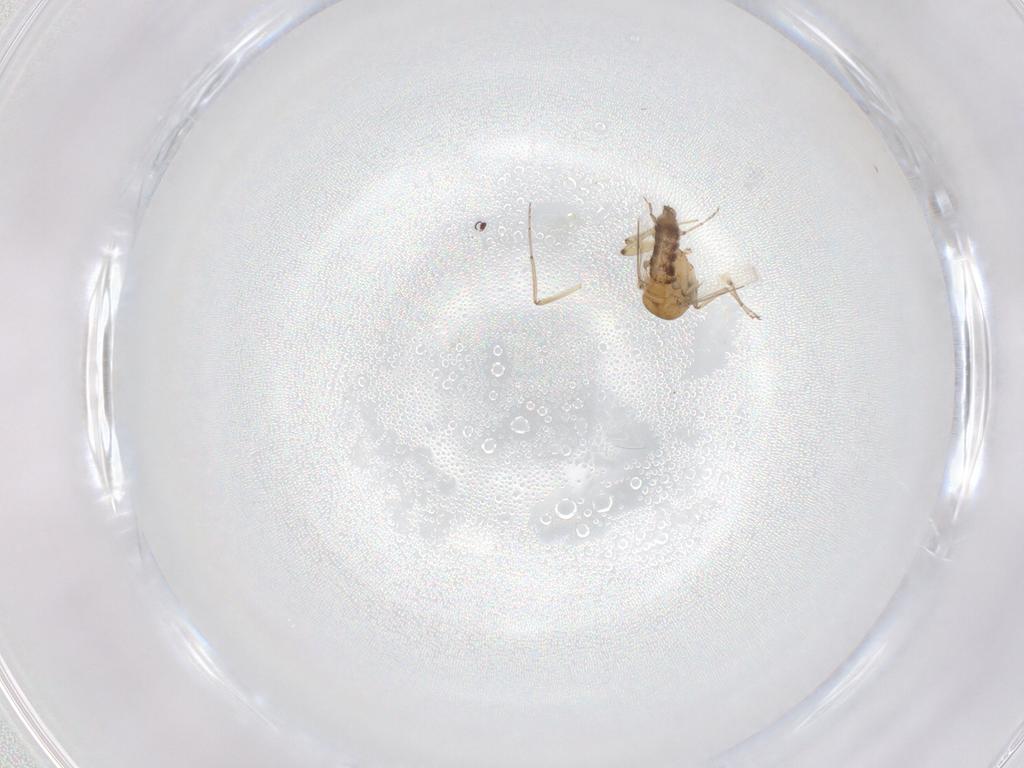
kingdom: Animalia
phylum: Arthropoda
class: Insecta
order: Diptera
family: Ceratopogonidae
